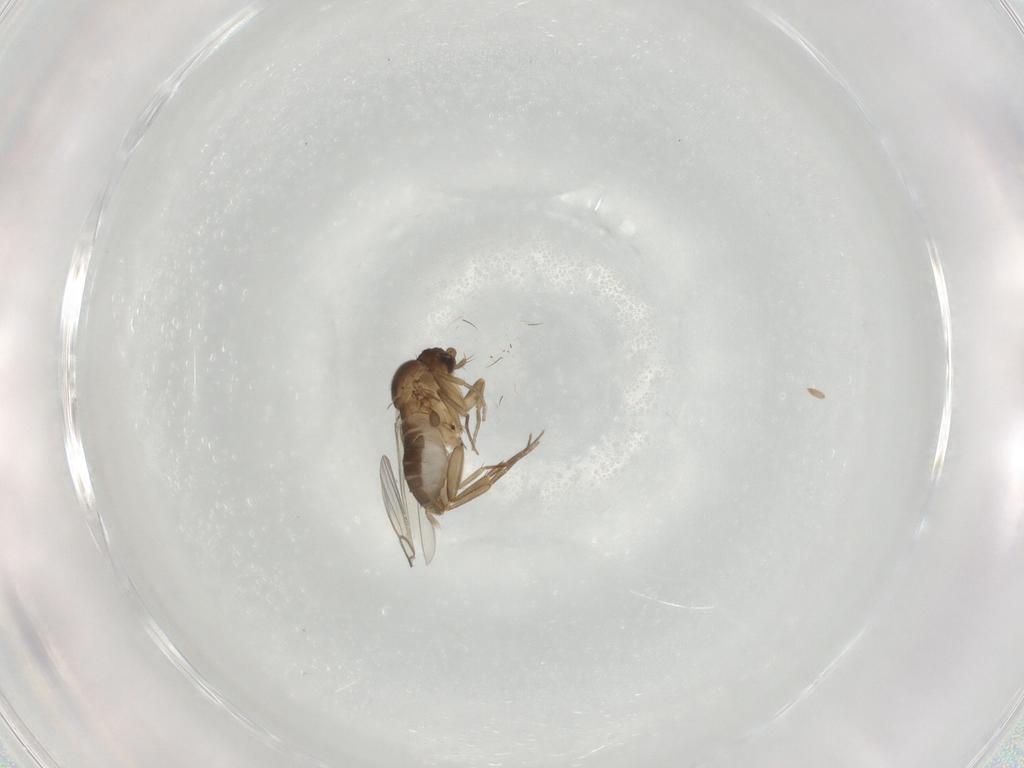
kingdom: Animalia
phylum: Arthropoda
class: Insecta
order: Diptera
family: Phoridae
